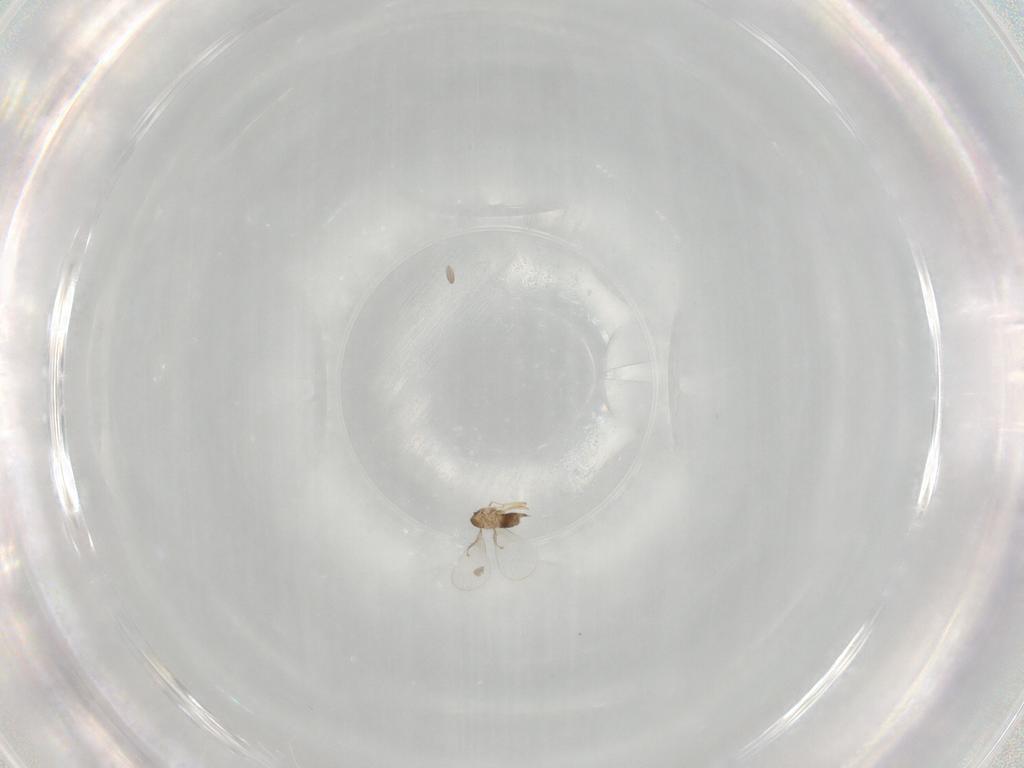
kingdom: Animalia
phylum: Arthropoda
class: Insecta
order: Hymenoptera
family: Trichogrammatidae
